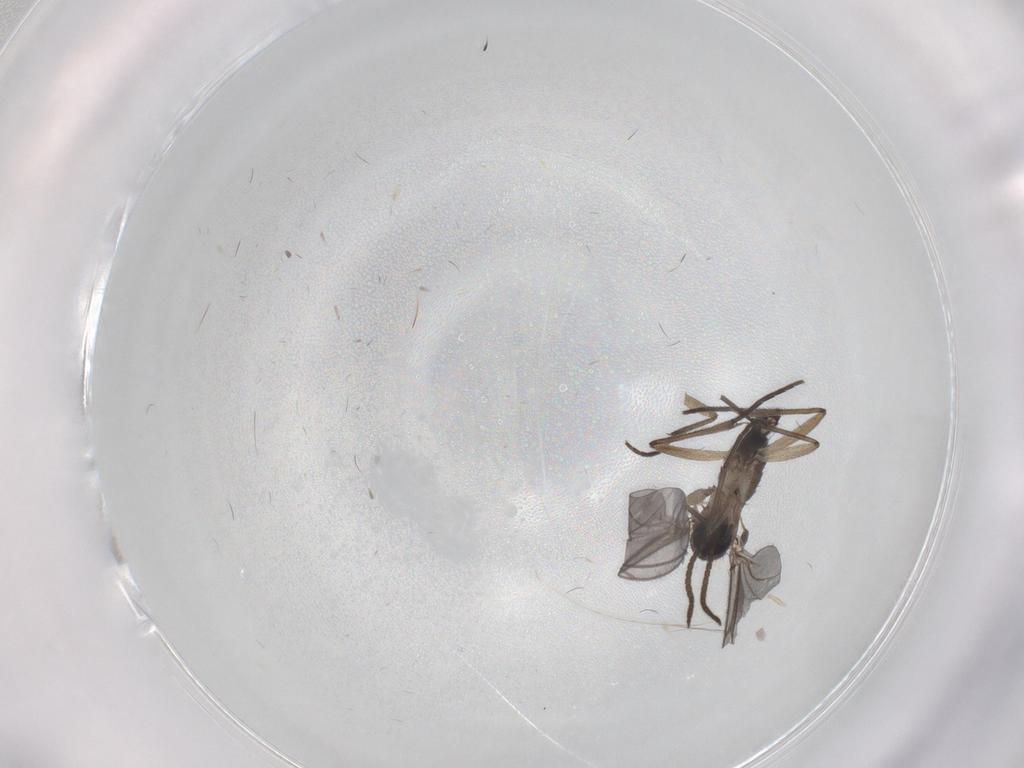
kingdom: Animalia
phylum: Arthropoda
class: Insecta
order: Diptera
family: Sciaridae
